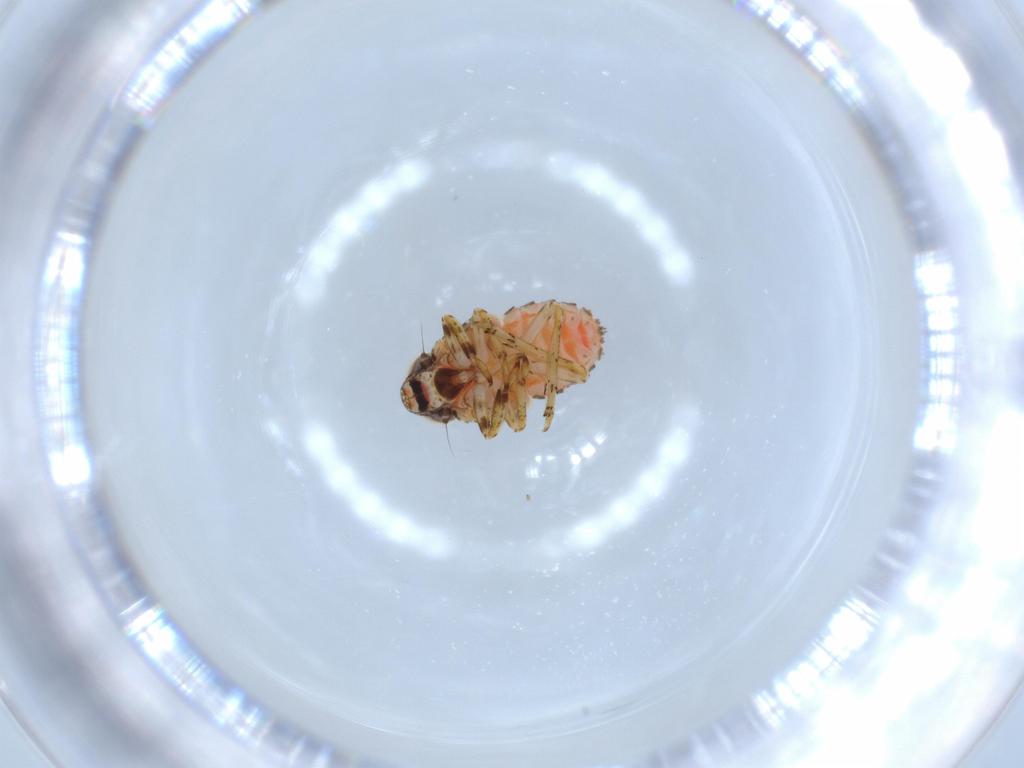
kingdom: Animalia
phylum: Arthropoda
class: Insecta
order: Hemiptera
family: Issidae
